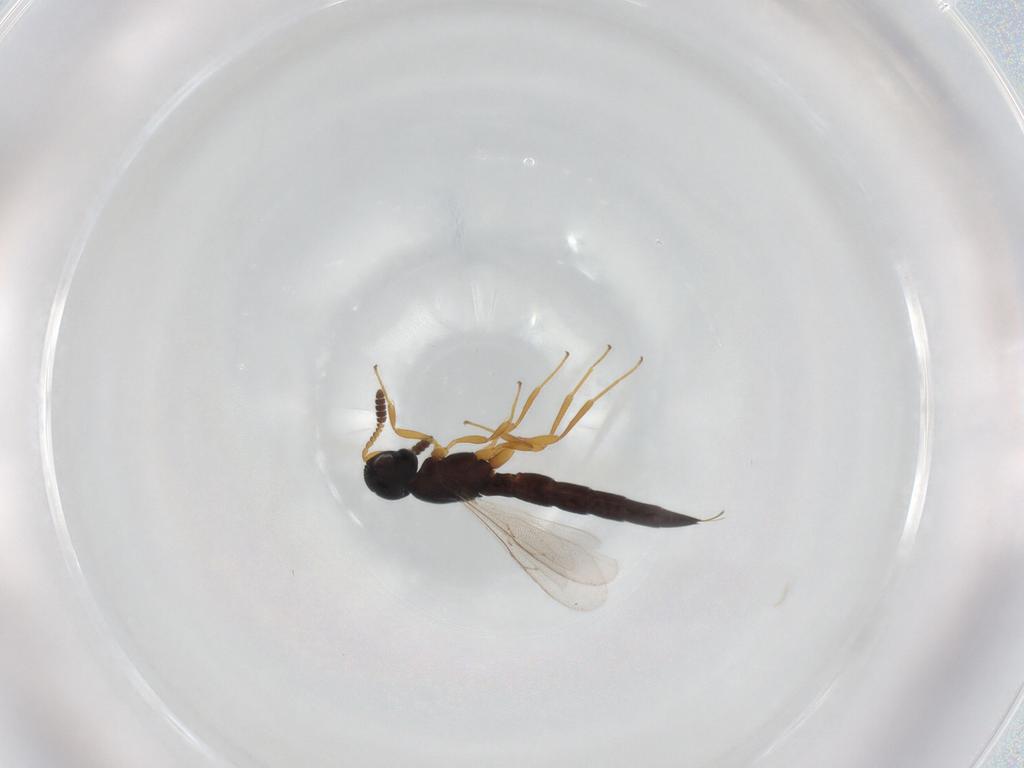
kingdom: Animalia
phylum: Arthropoda
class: Insecta
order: Hymenoptera
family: Scelionidae
